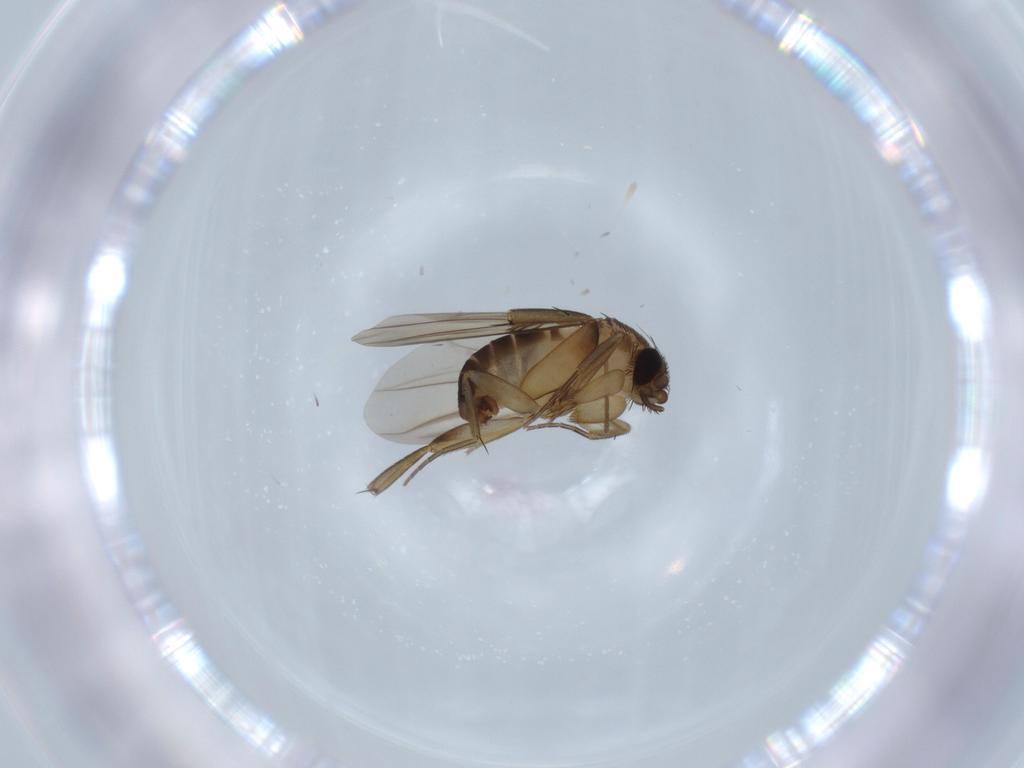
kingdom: Animalia
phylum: Arthropoda
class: Insecta
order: Diptera
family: Phoridae
